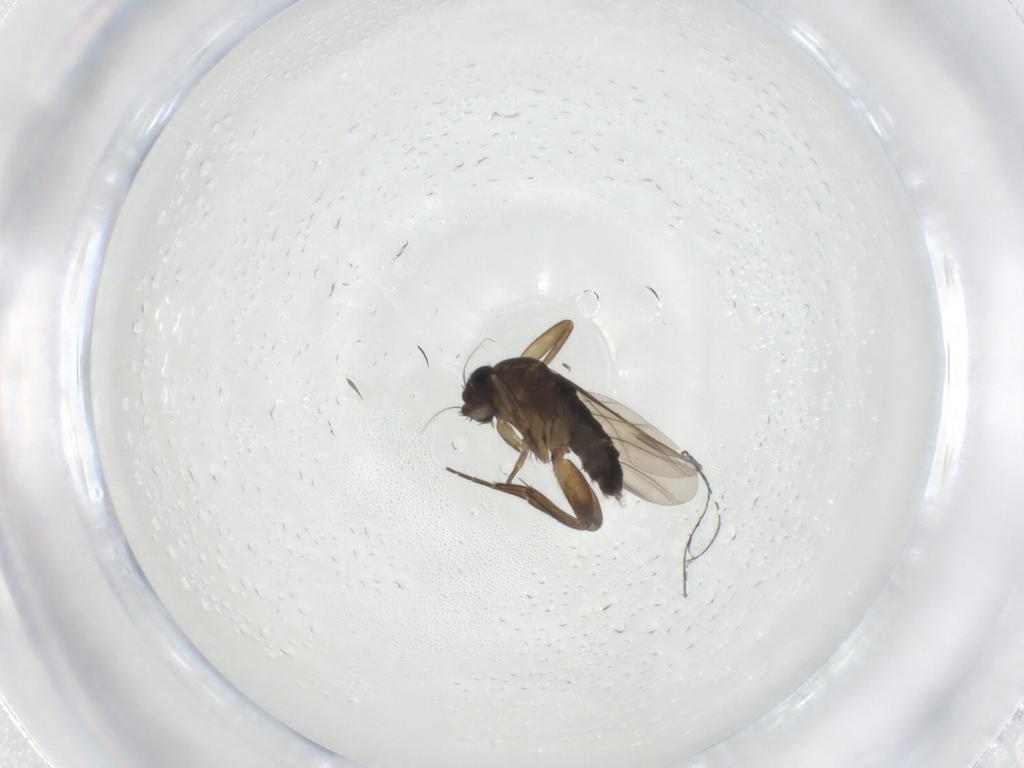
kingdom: Animalia
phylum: Arthropoda
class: Insecta
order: Diptera
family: Phoridae
